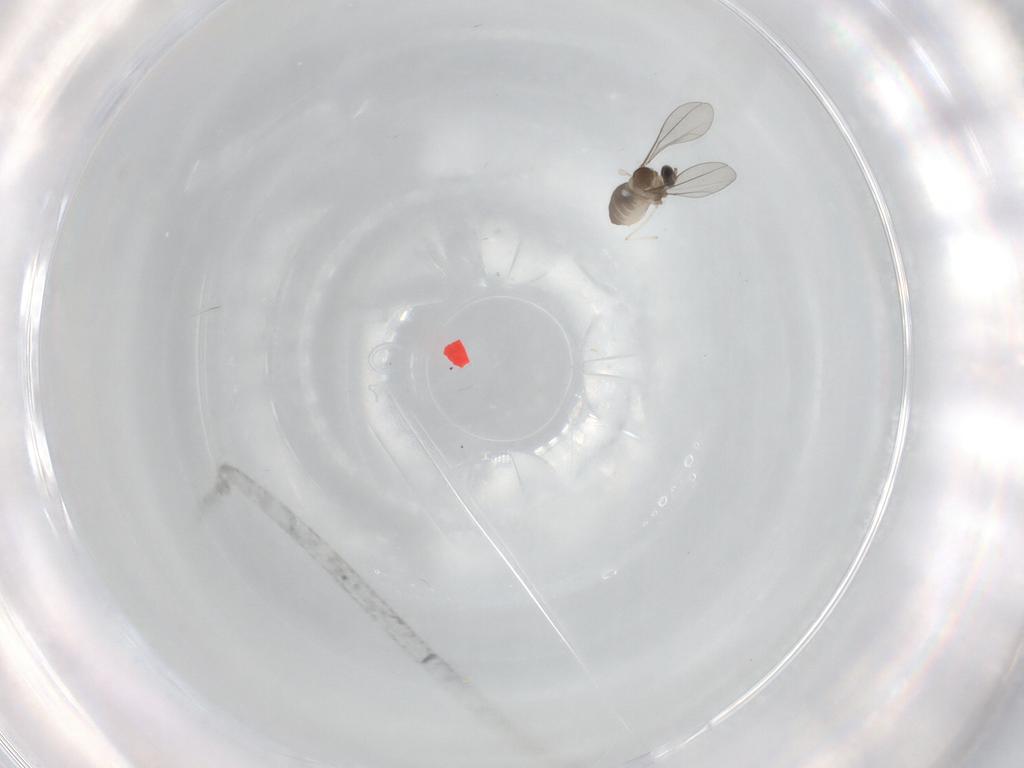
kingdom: Animalia
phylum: Arthropoda
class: Insecta
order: Diptera
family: Cecidomyiidae
